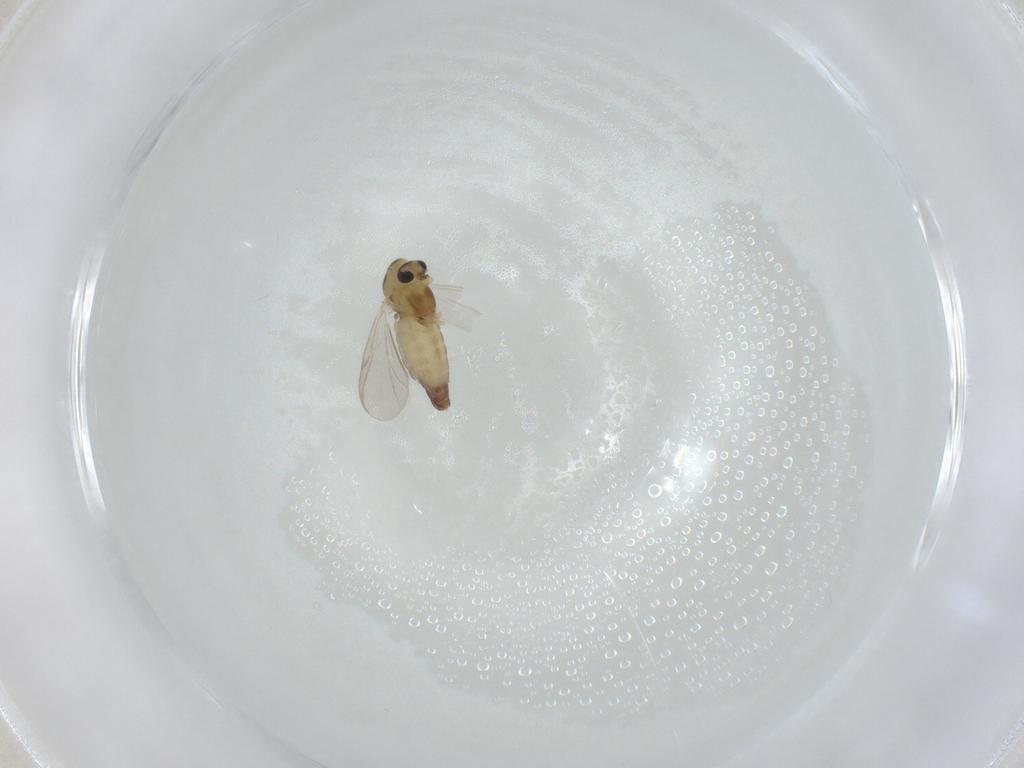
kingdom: Animalia
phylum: Arthropoda
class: Insecta
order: Diptera
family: Chironomidae
